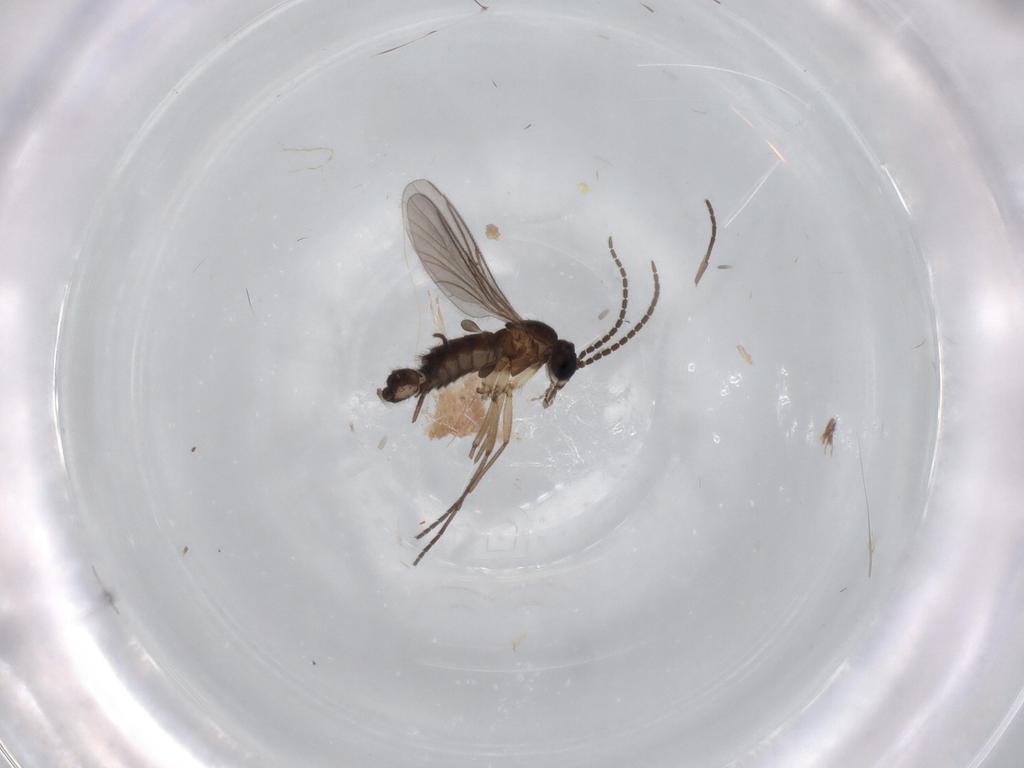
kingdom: Animalia
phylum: Arthropoda
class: Insecta
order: Diptera
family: Sciaridae
